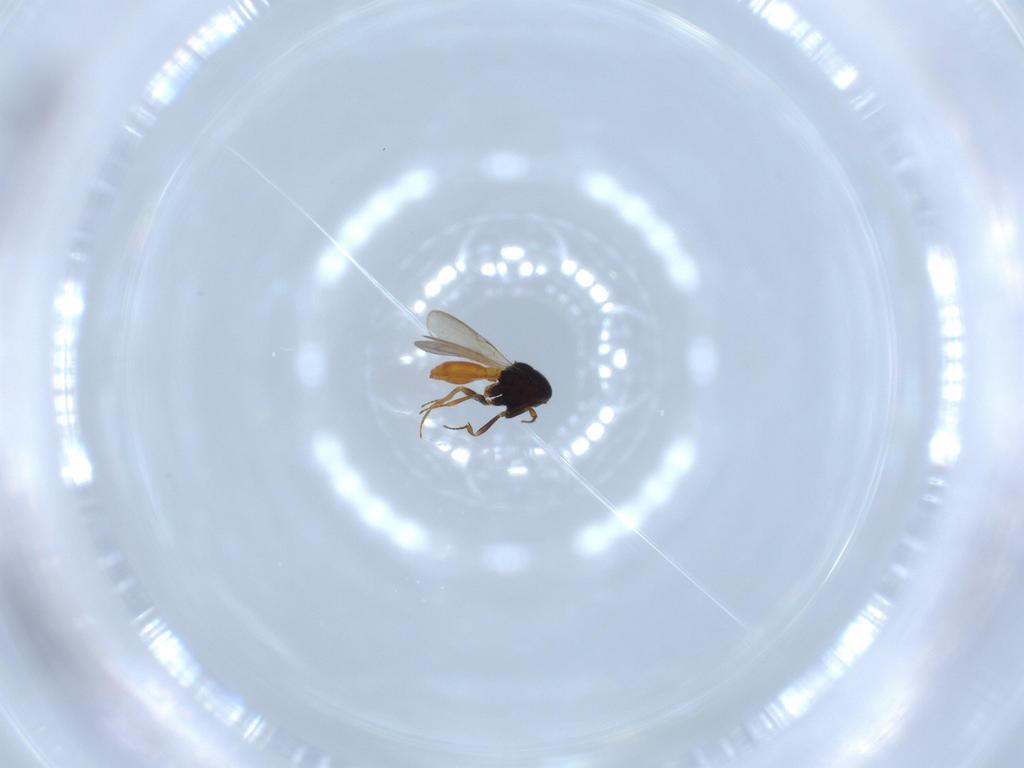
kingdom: Animalia
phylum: Arthropoda
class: Insecta
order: Hymenoptera
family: Scelionidae
